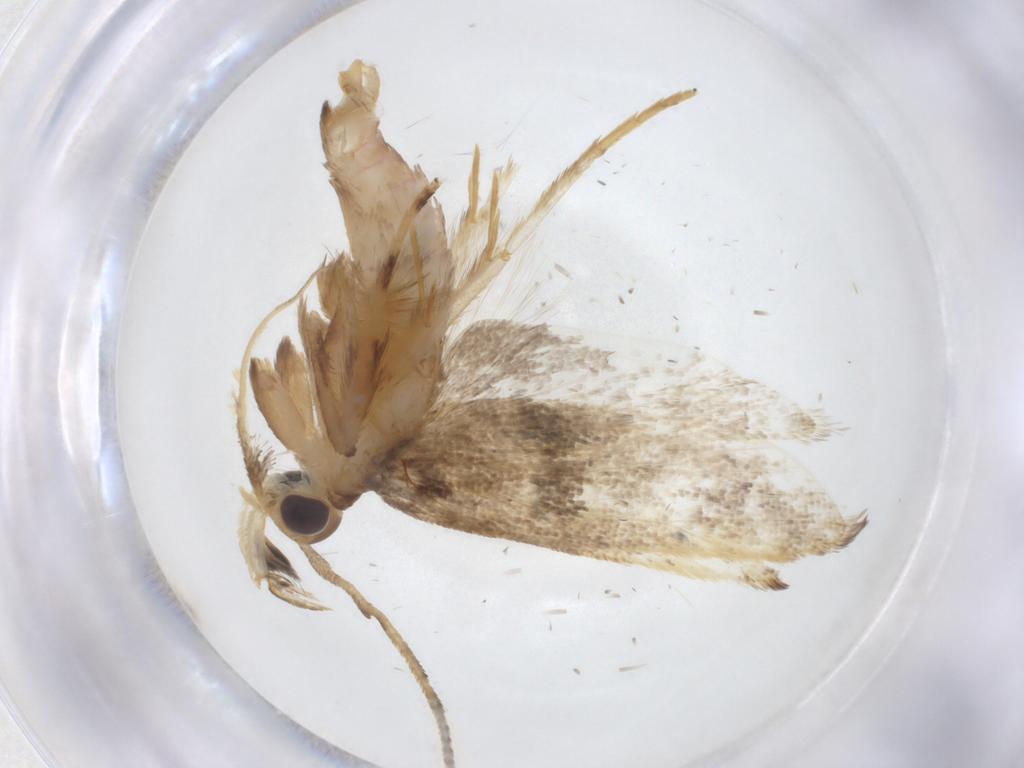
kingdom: Animalia
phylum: Arthropoda
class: Insecta
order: Lepidoptera
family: Lecithoceridae
